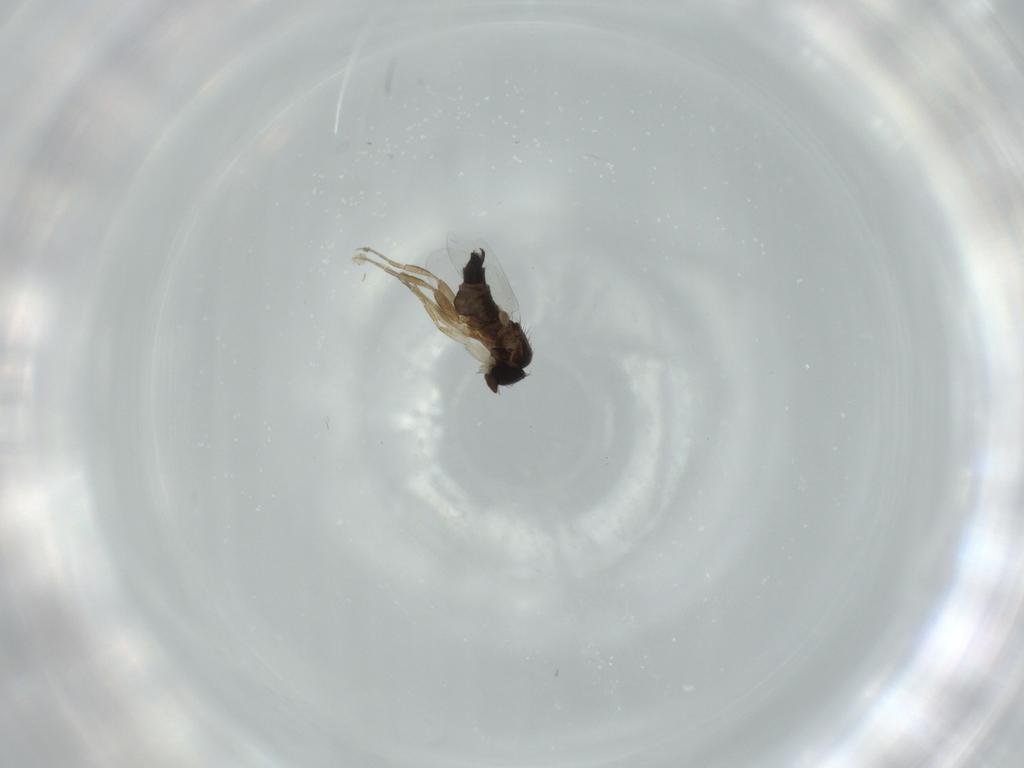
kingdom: Animalia
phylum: Arthropoda
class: Insecta
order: Diptera
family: Phoridae
